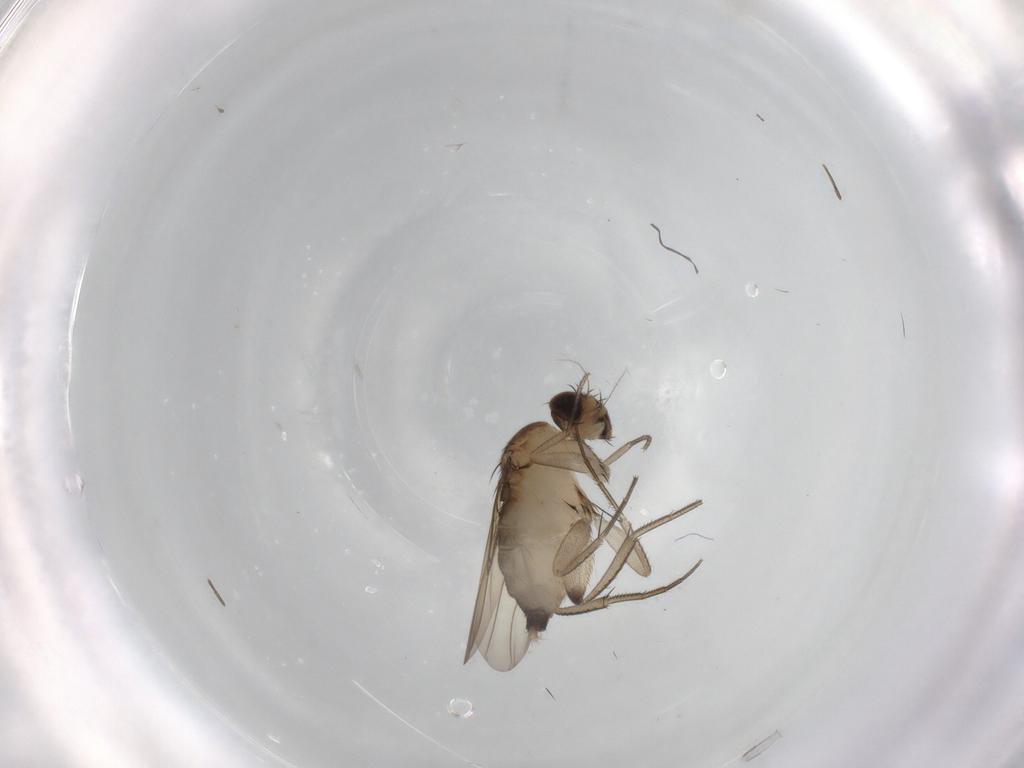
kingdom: Animalia
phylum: Arthropoda
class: Insecta
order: Diptera
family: Phoridae
